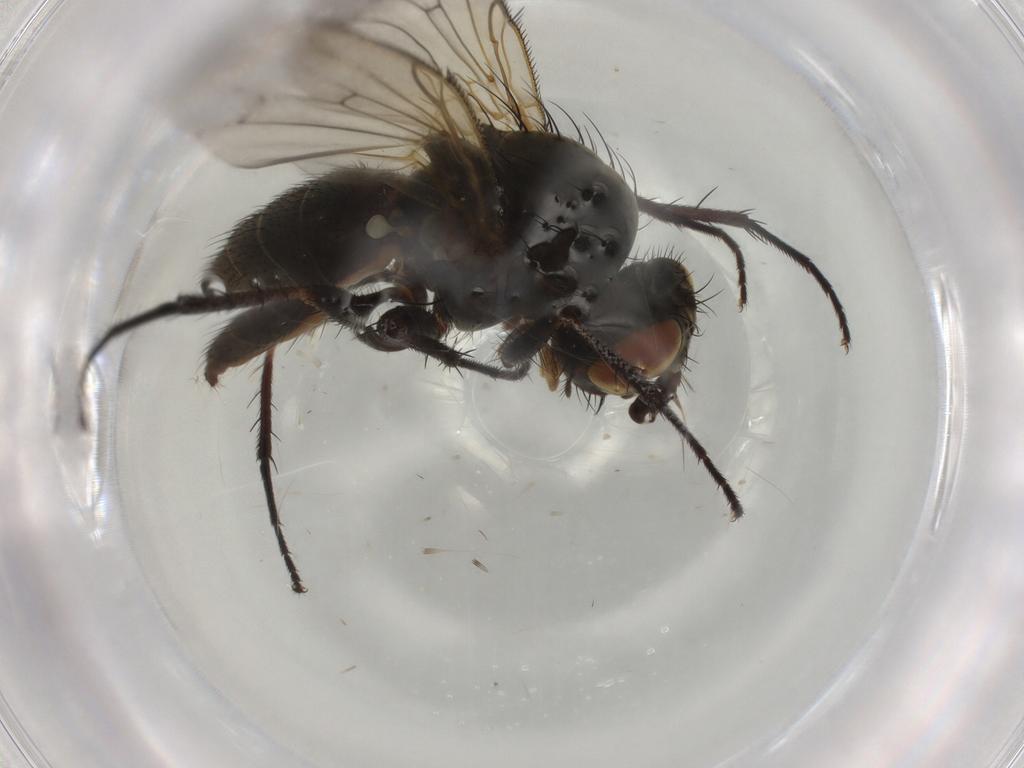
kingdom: Animalia
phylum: Arthropoda
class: Insecta
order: Diptera
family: Anthomyiidae
